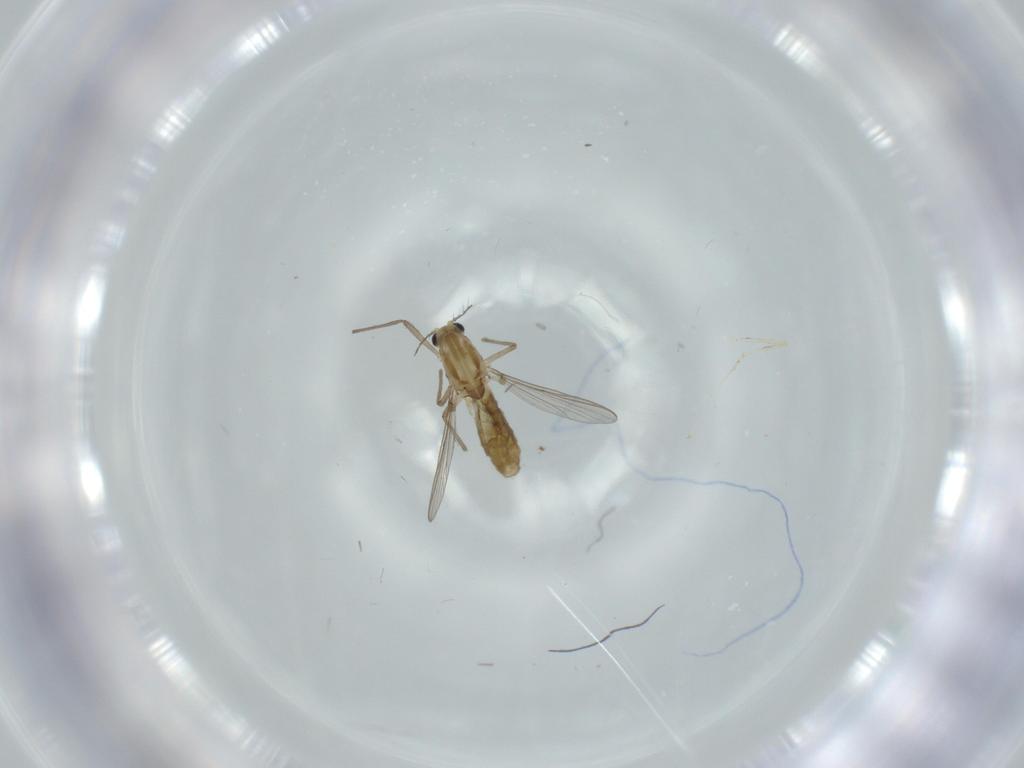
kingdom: Animalia
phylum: Arthropoda
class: Insecta
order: Diptera
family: Chironomidae
